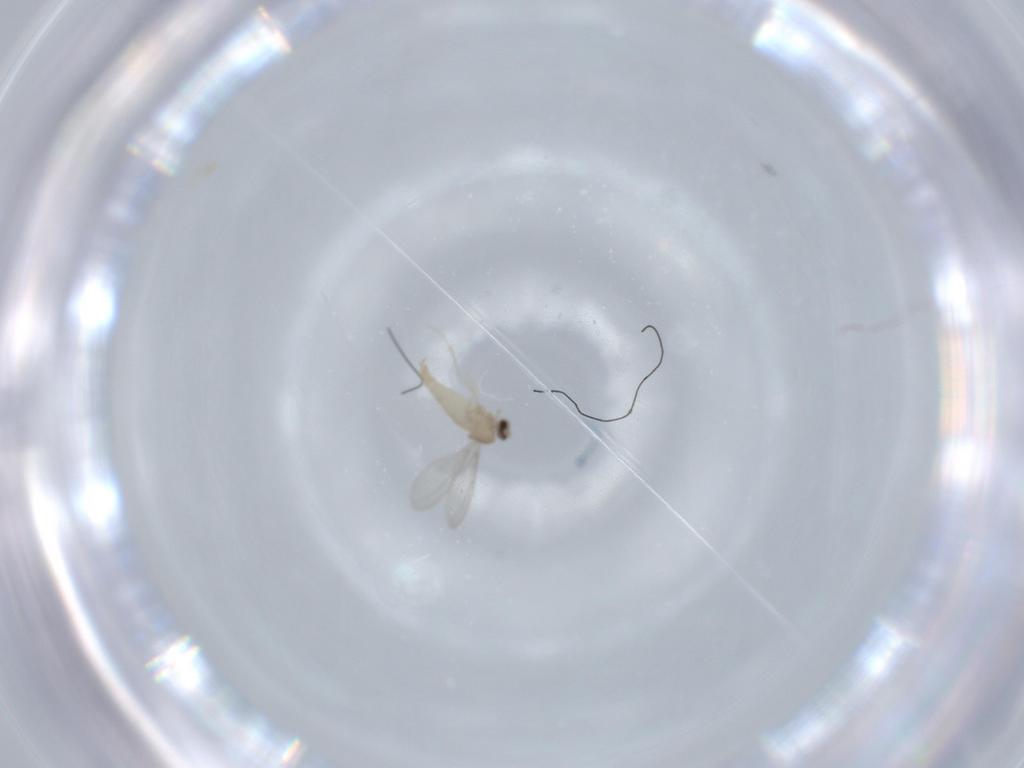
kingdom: Animalia
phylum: Arthropoda
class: Insecta
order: Diptera
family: Cecidomyiidae
